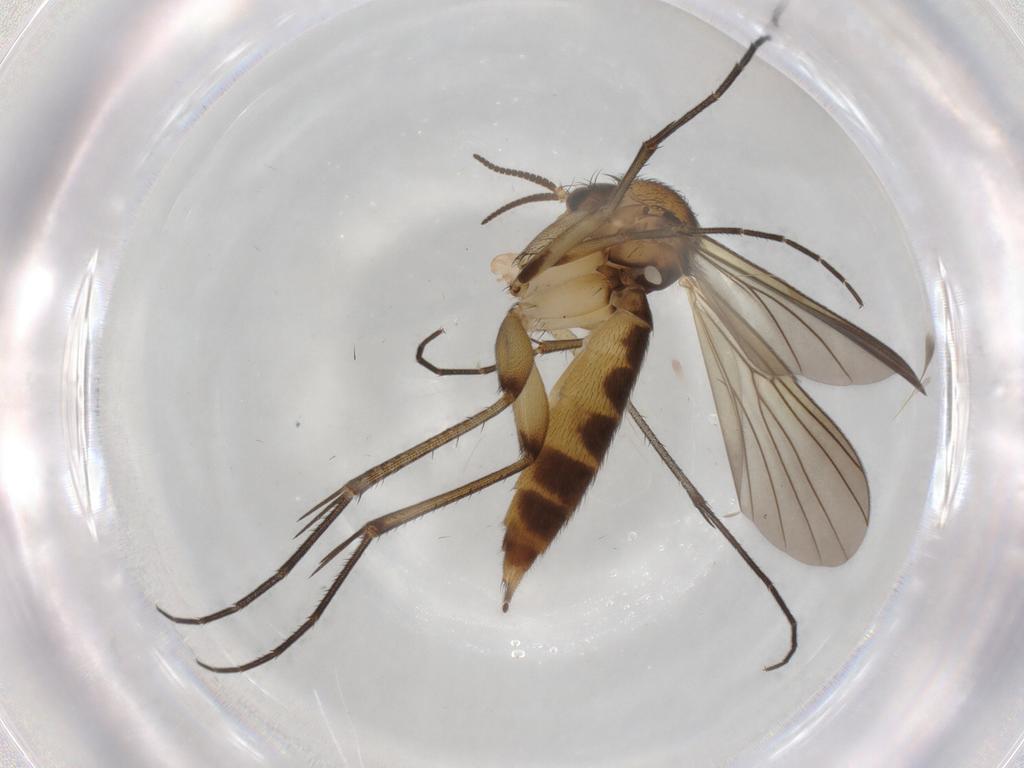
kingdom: Animalia
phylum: Arthropoda
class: Insecta
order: Diptera
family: Mycetophilidae
